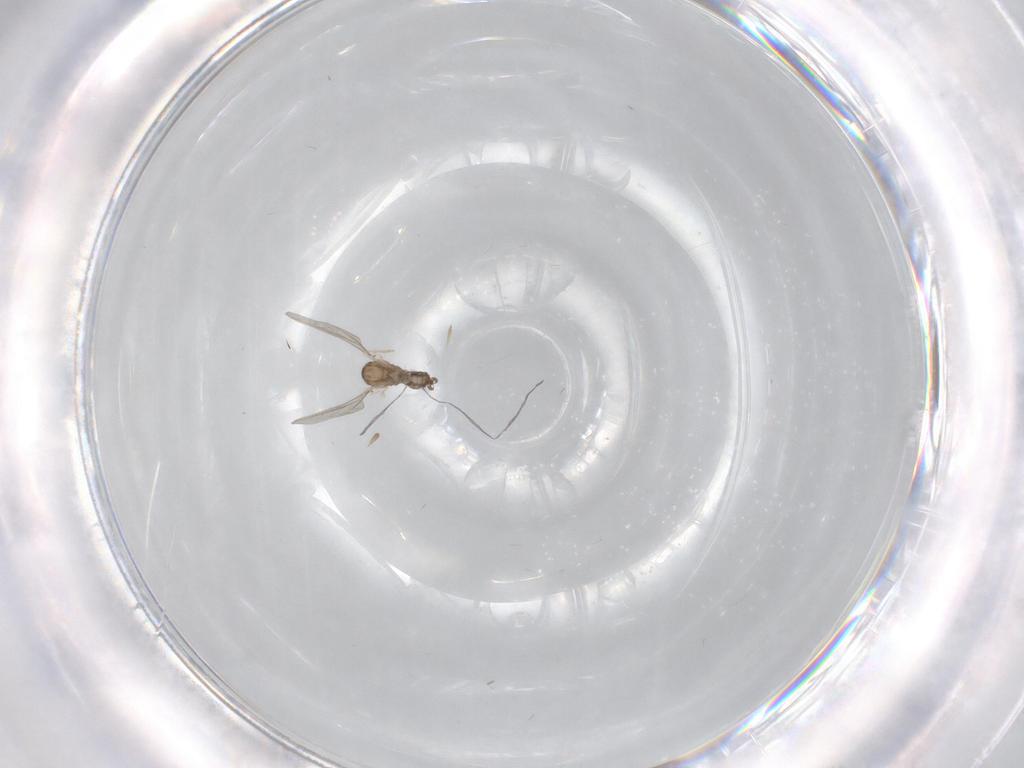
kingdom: Animalia
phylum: Arthropoda
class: Insecta
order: Diptera
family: Cecidomyiidae
